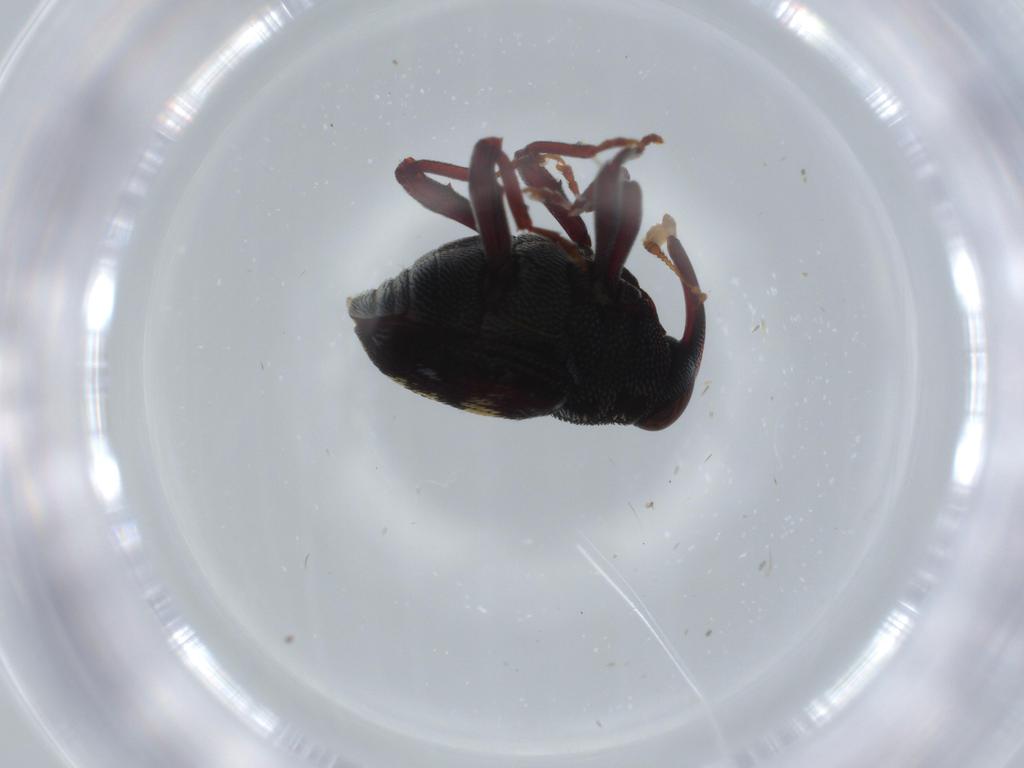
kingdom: Animalia
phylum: Arthropoda
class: Insecta
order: Coleoptera
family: Curculionidae
